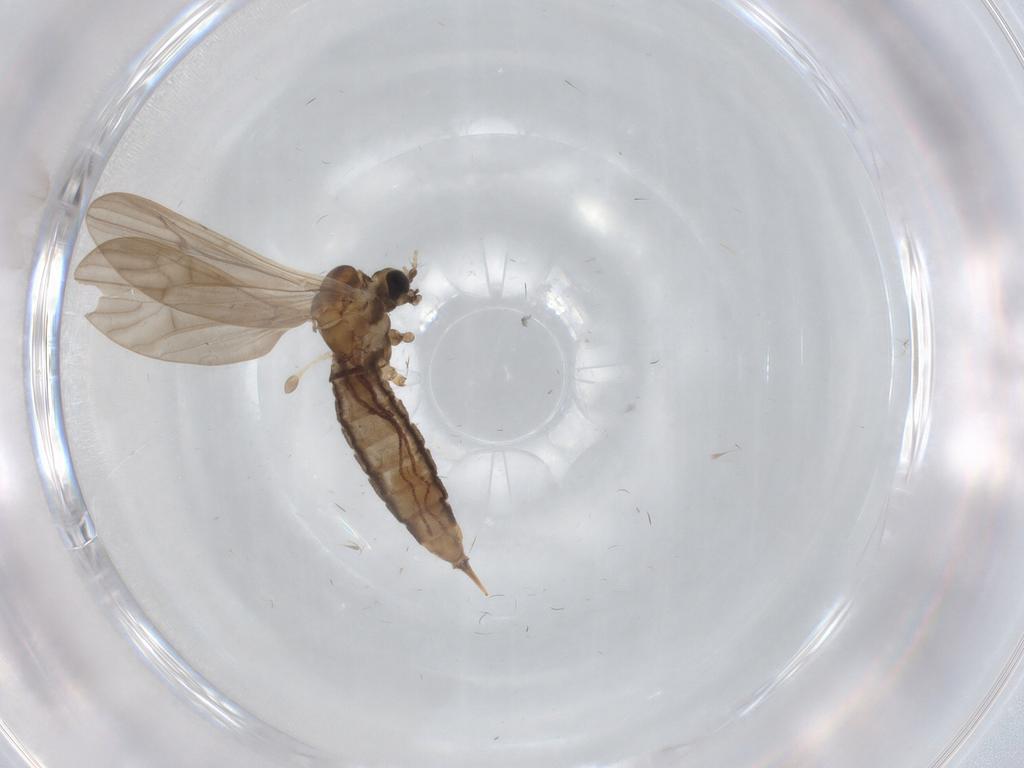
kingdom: Animalia
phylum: Arthropoda
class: Insecta
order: Diptera
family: Limoniidae
